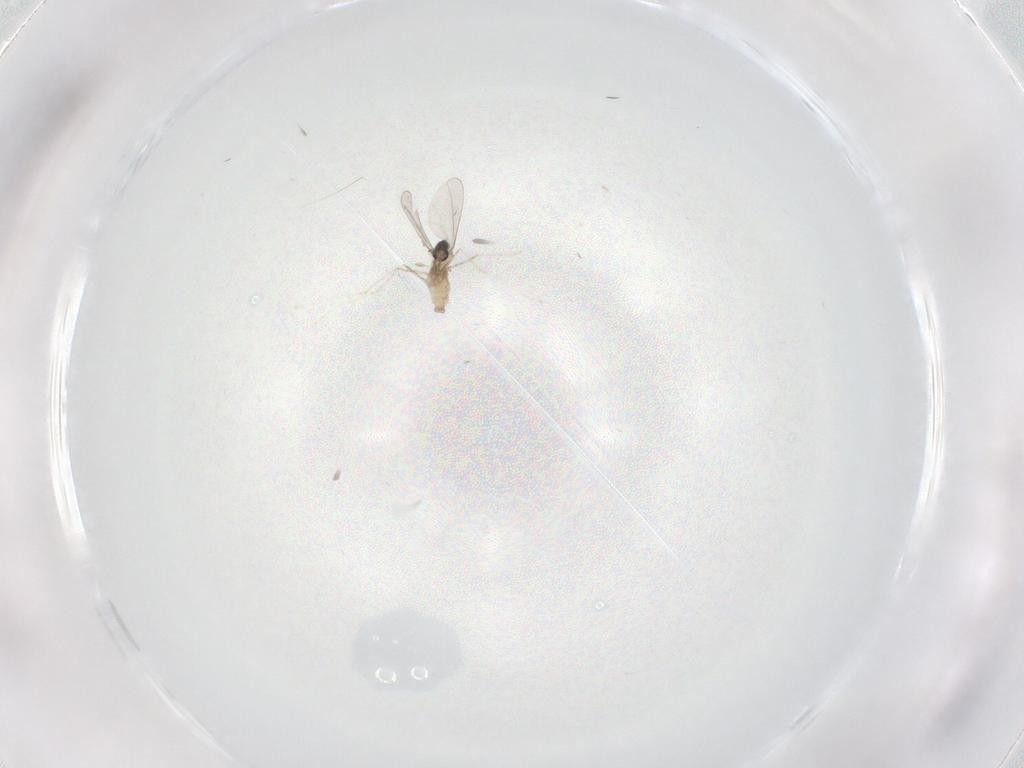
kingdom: Animalia
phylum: Arthropoda
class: Insecta
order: Diptera
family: Cecidomyiidae
